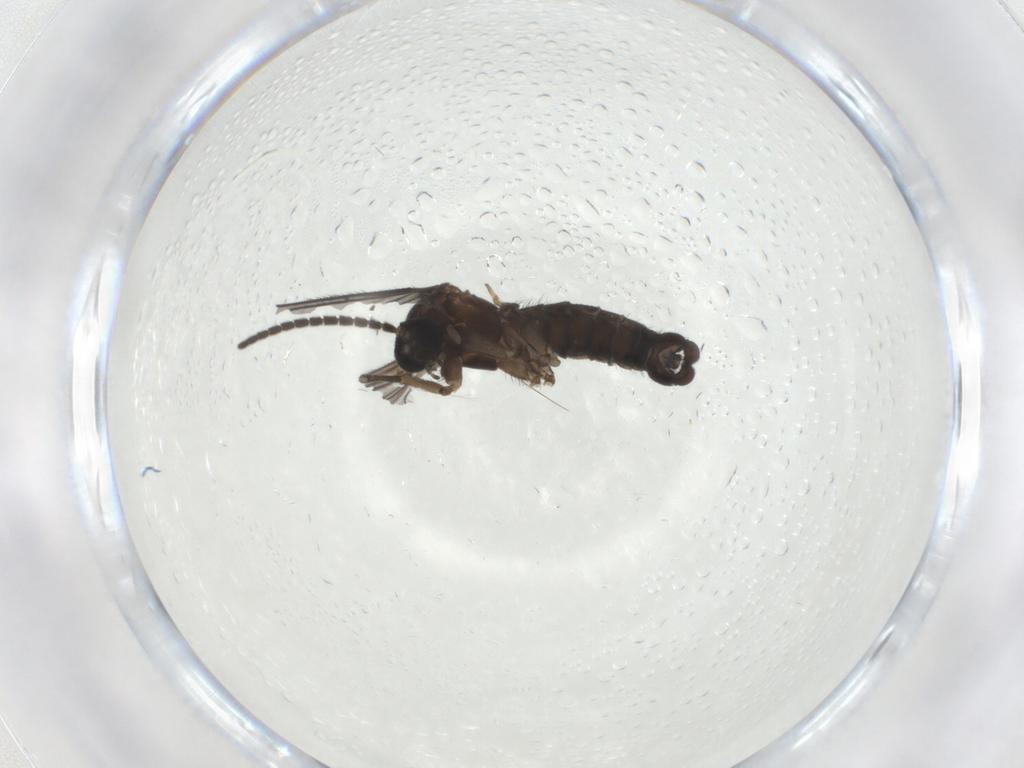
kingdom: Animalia
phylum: Arthropoda
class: Insecta
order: Diptera
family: Sciaridae
